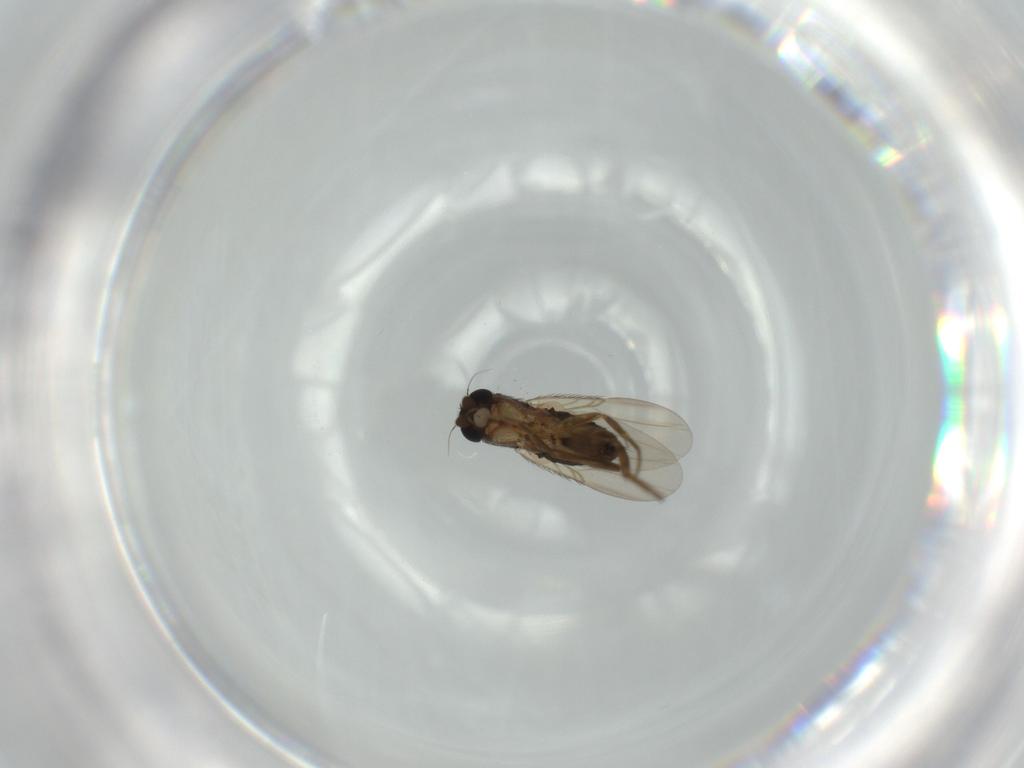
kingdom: Animalia
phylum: Arthropoda
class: Insecta
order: Diptera
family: Phoridae
